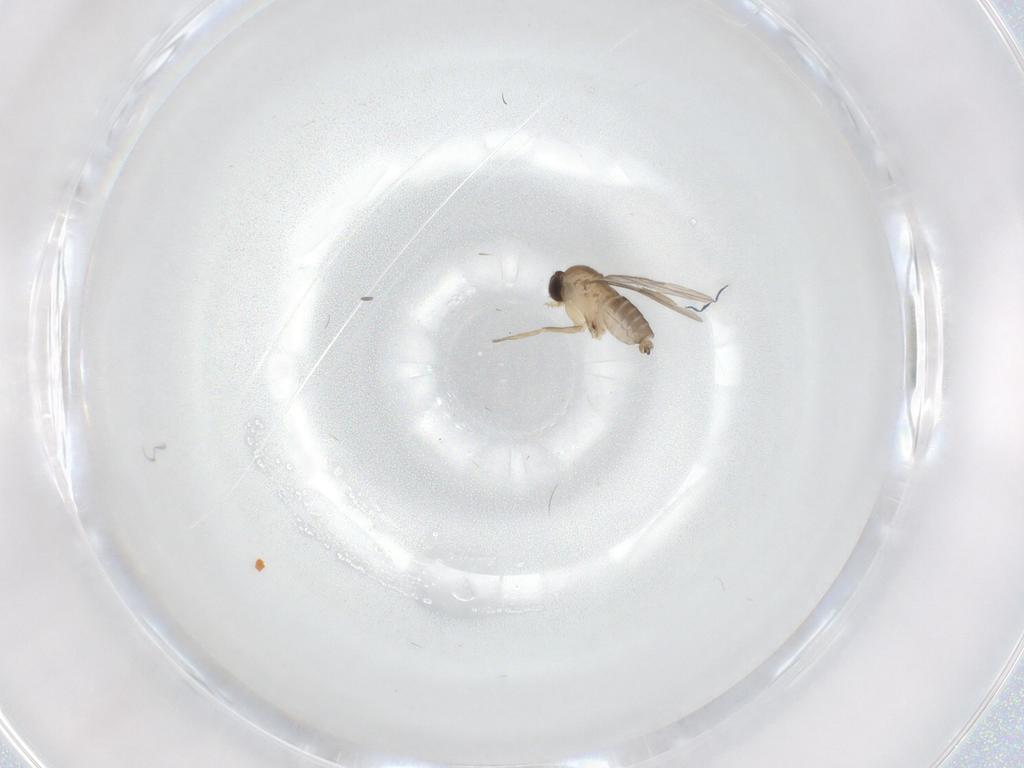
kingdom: Animalia
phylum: Arthropoda
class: Insecta
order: Diptera
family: Phoridae
